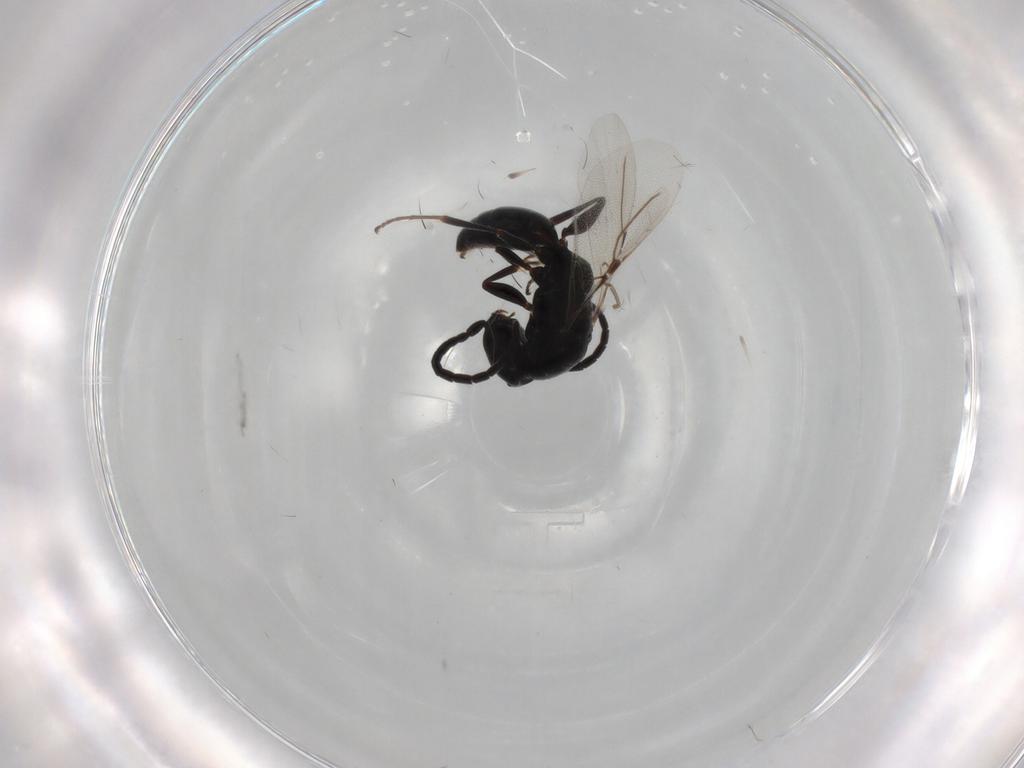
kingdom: Animalia
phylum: Arthropoda
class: Insecta
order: Hymenoptera
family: Bethylidae
